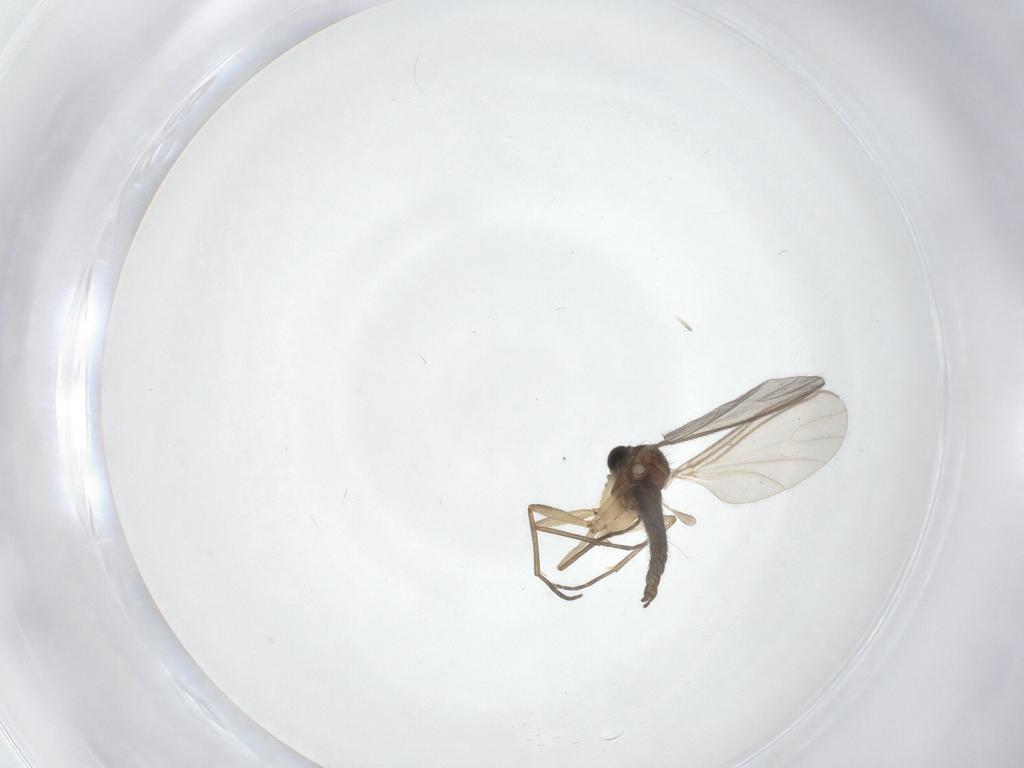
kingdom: Animalia
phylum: Arthropoda
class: Insecta
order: Diptera
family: Sciaridae
